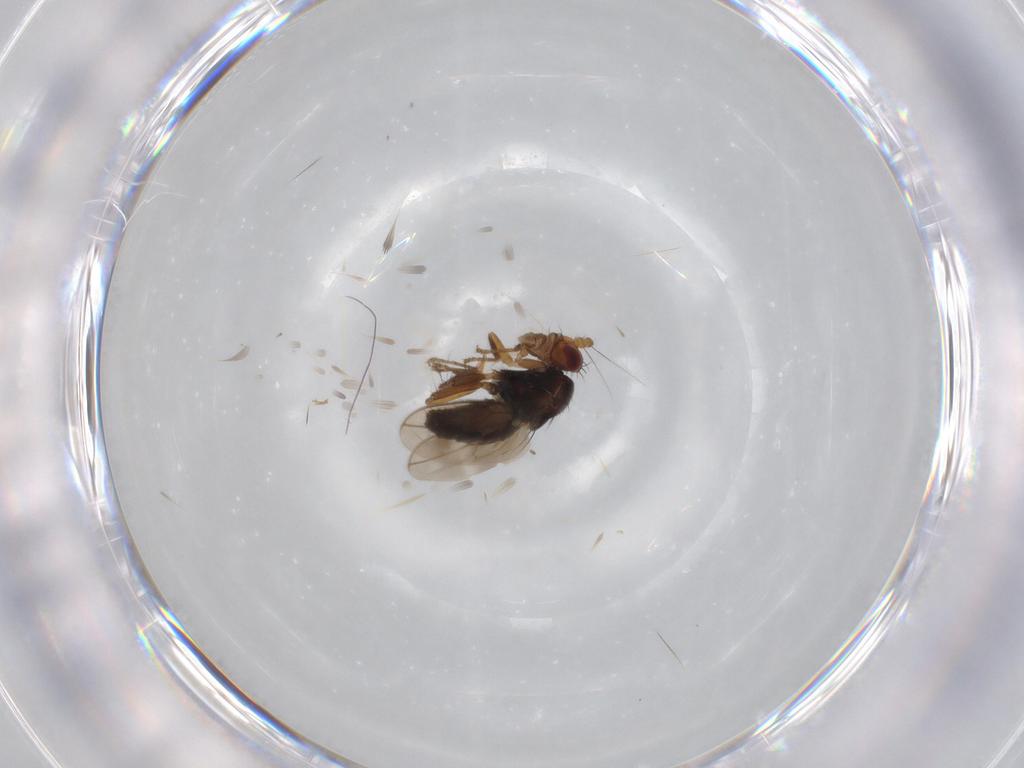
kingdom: Animalia
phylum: Arthropoda
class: Insecta
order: Diptera
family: Sphaeroceridae
